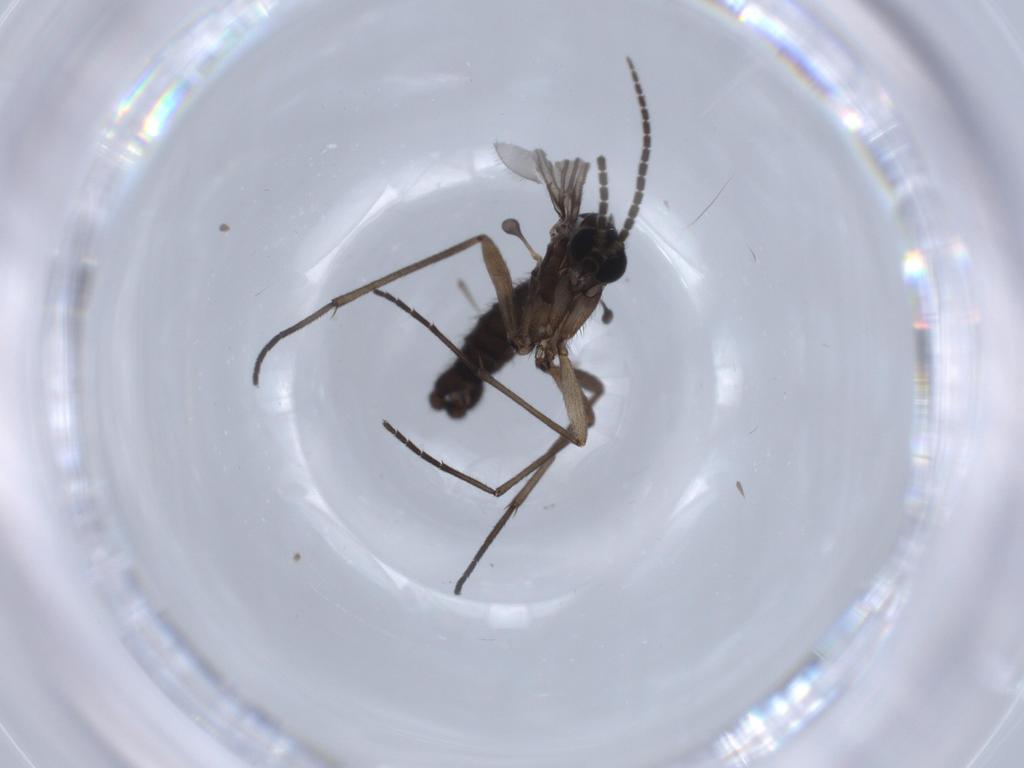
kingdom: Animalia
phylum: Arthropoda
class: Insecta
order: Diptera
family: Sciaridae
